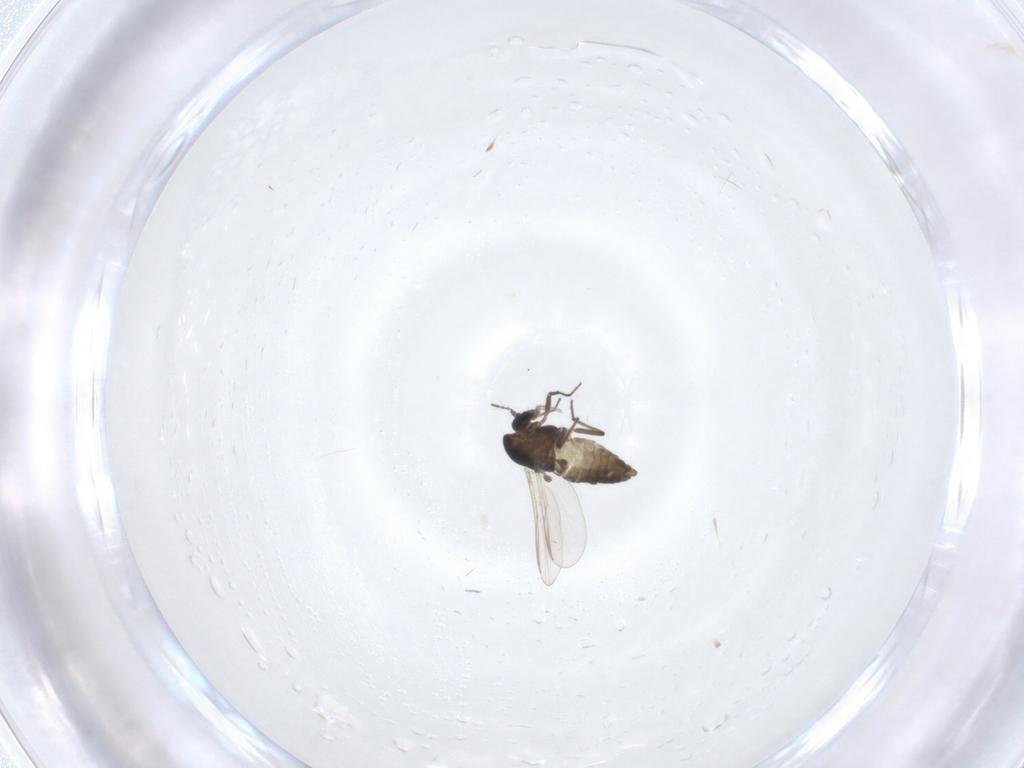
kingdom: Animalia
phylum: Arthropoda
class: Insecta
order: Diptera
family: Chironomidae
